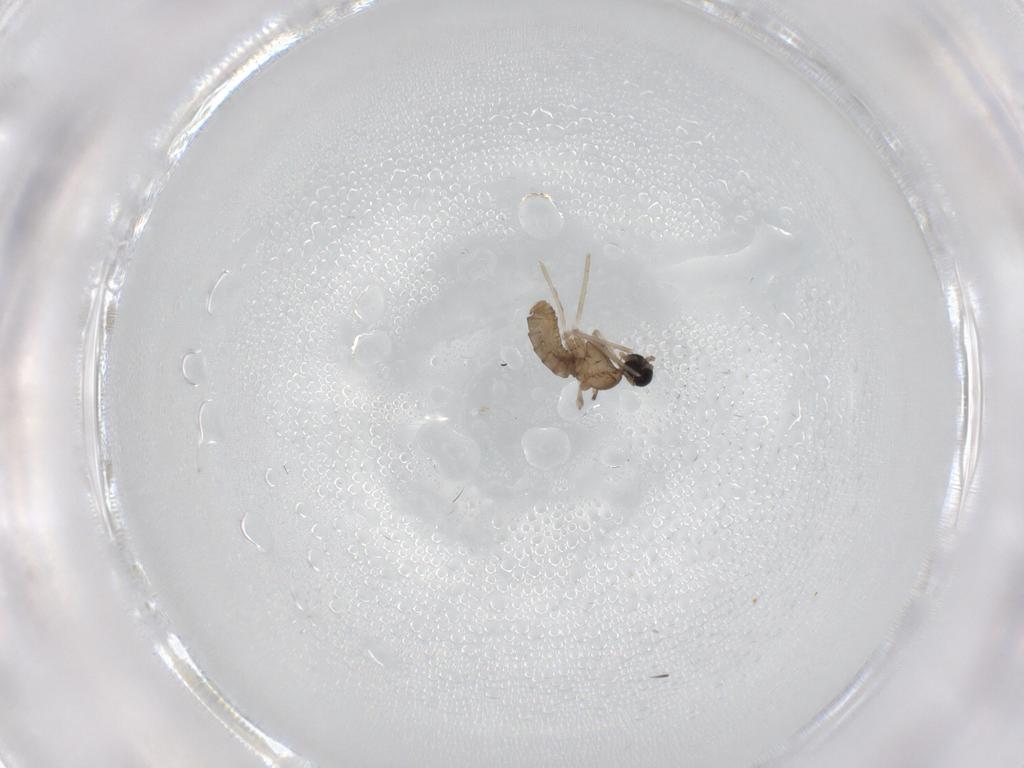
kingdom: Animalia
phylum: Arthropoda
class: Insecta
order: Diptera
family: Cecidomyiidae
